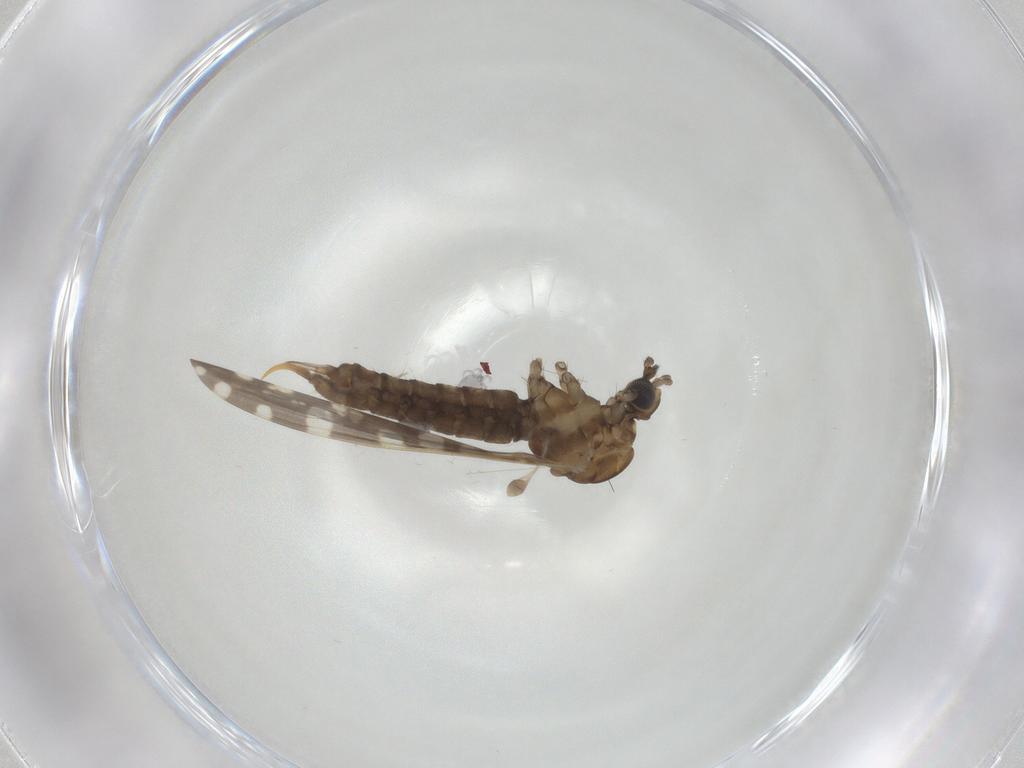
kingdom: Animalia
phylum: Arthropoda
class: Insecta
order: Diptera
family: Limoniidae
